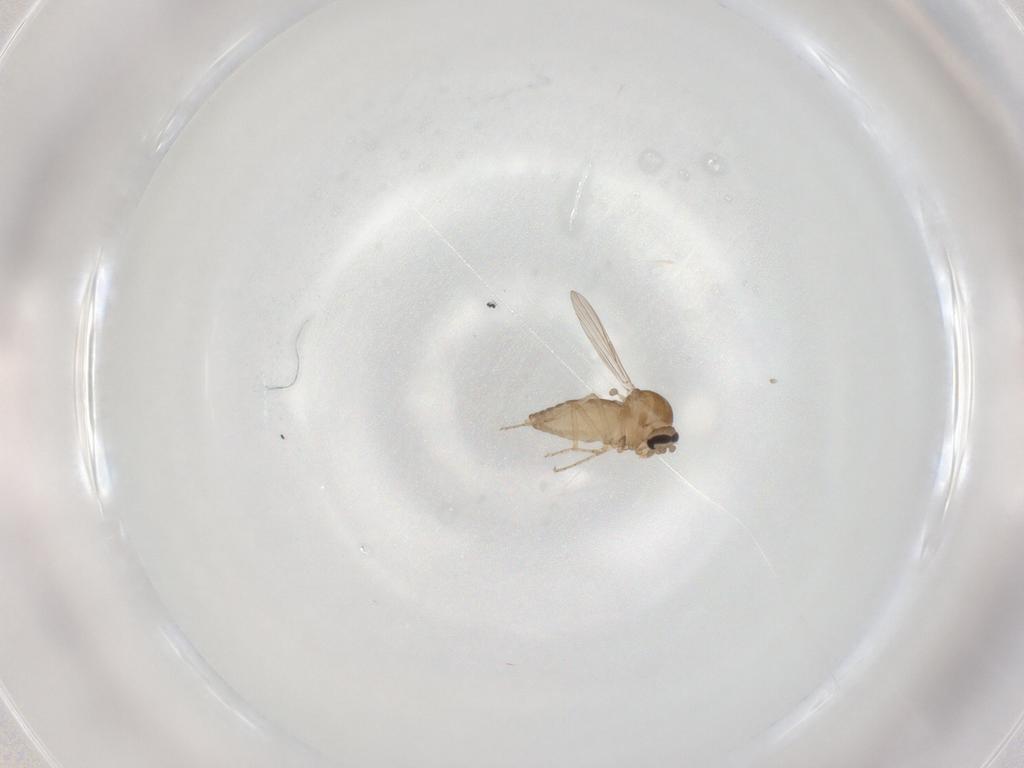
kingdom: Animalia
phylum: Arthropoda
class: Insecta
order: Diptera
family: Ceratopogonidae
